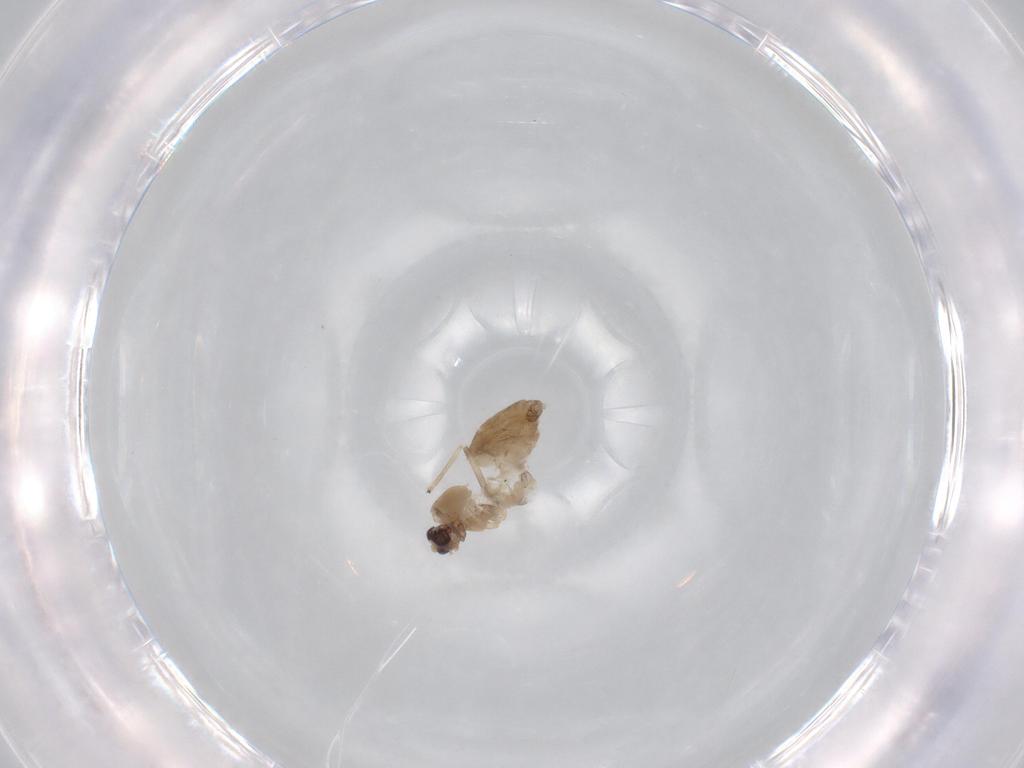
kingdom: Animalia
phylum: Arthropoda
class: Insecta
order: Diptera
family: Chironomidae
